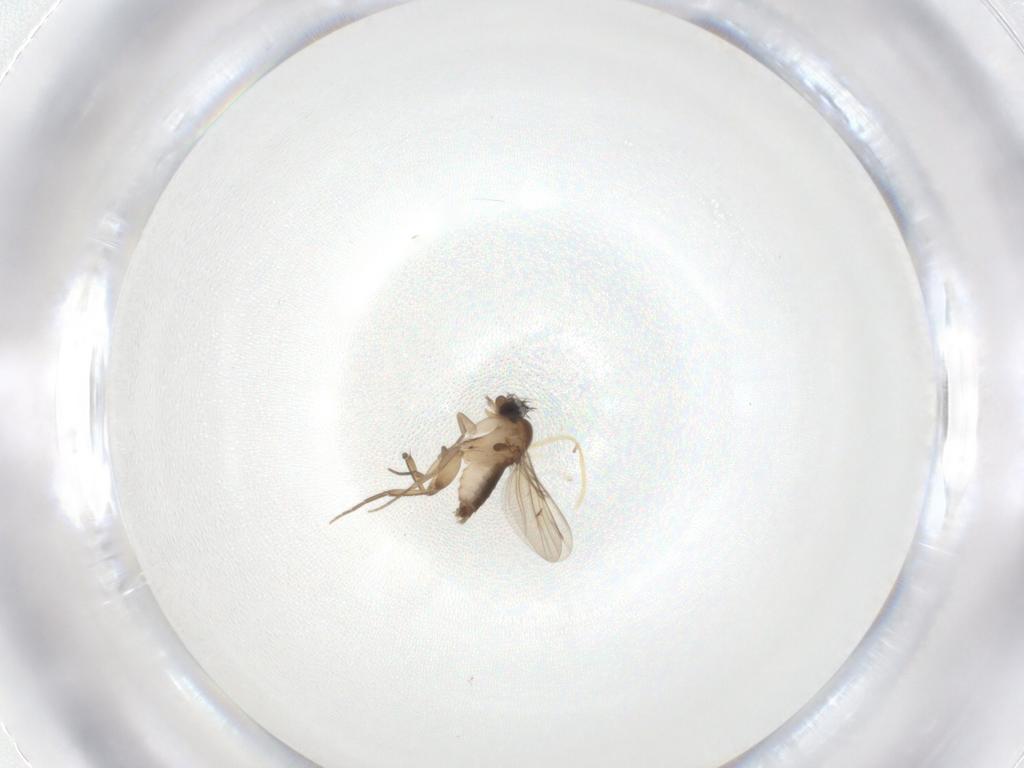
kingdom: Animalia
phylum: Arthropoda
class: Insecta
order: Diptera
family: Phoridae
